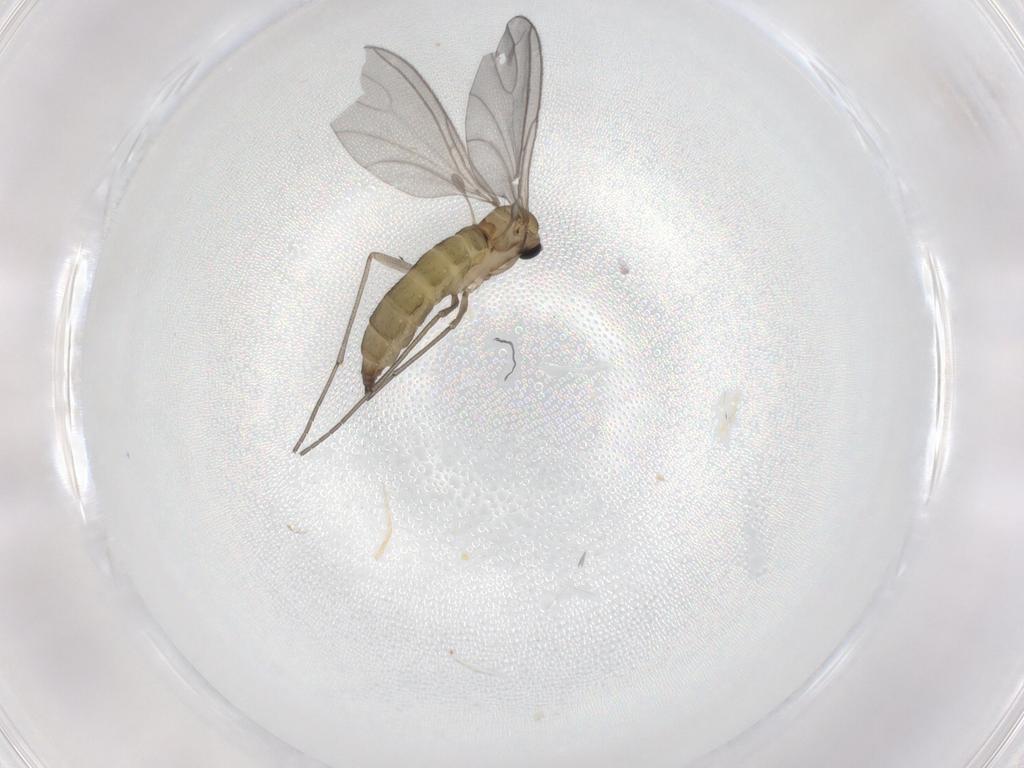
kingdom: Animalia
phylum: Arthropoda
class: Insecta
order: Diptera
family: Sciaridae
